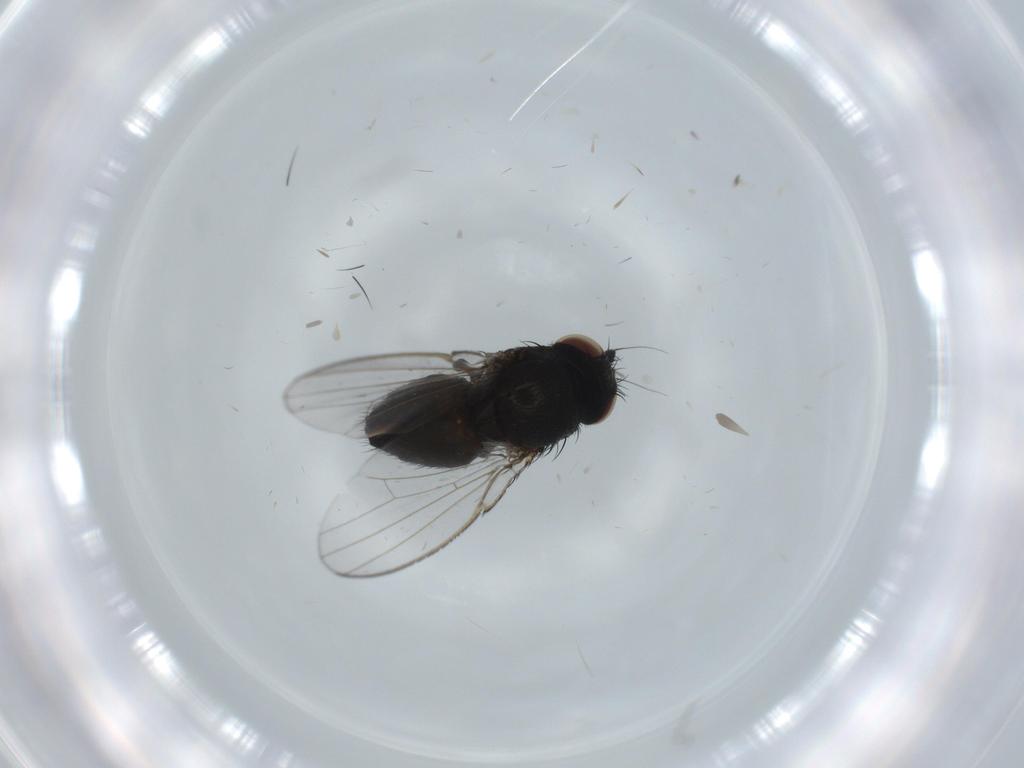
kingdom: Animalia
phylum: Arthropoda
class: Insecta
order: Diptera
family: Milichiidae
